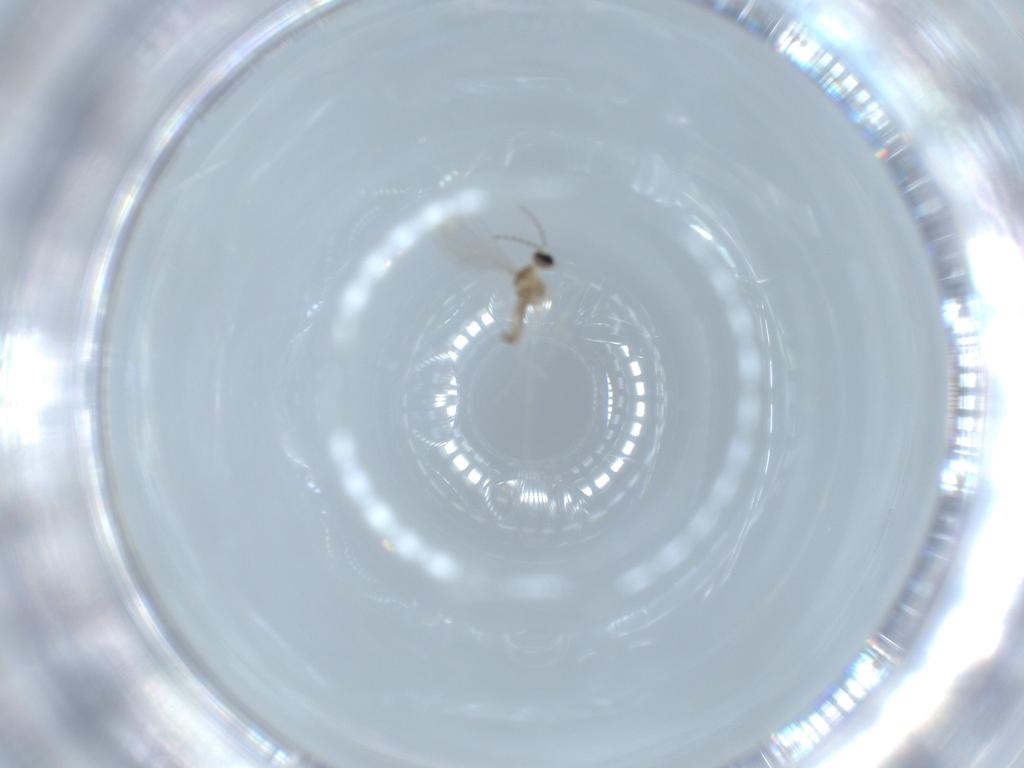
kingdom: Animalia
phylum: Arthropoda
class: Insecta
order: Diptera
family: Cecidomyiidae
